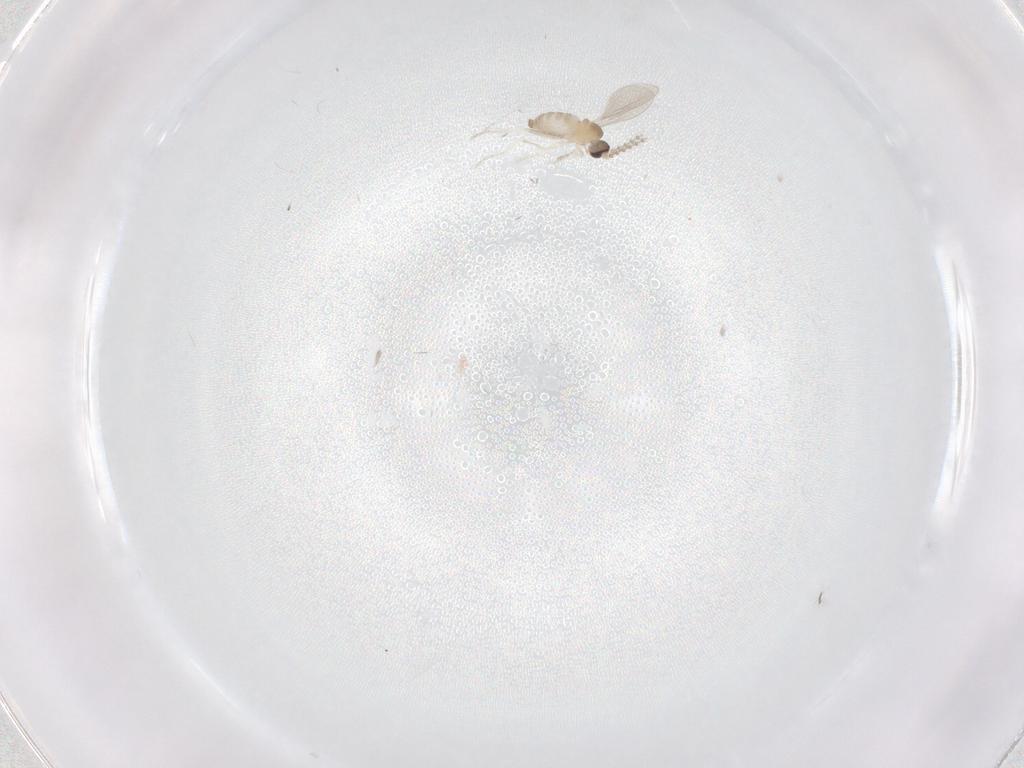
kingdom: Animalia
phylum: Arthropoda
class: Insecta
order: Diptera
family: Cecidomyiidae
